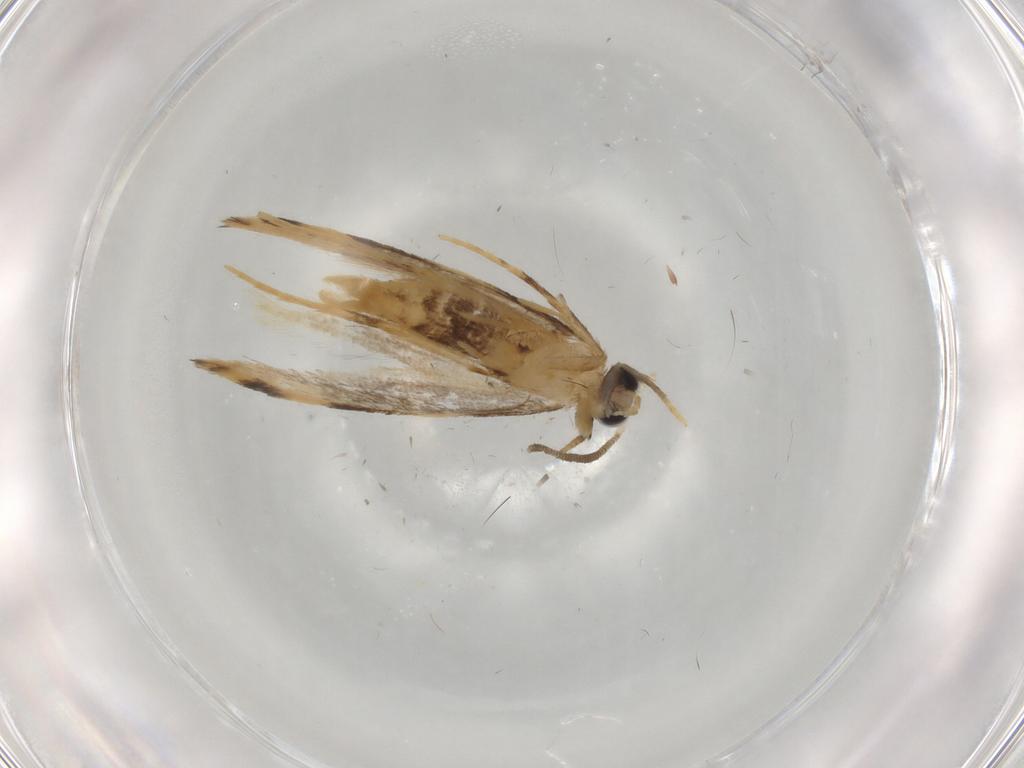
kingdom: Animalia
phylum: Arthropoda
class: Insecta
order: Lepidoptera
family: Bucculatricidae
